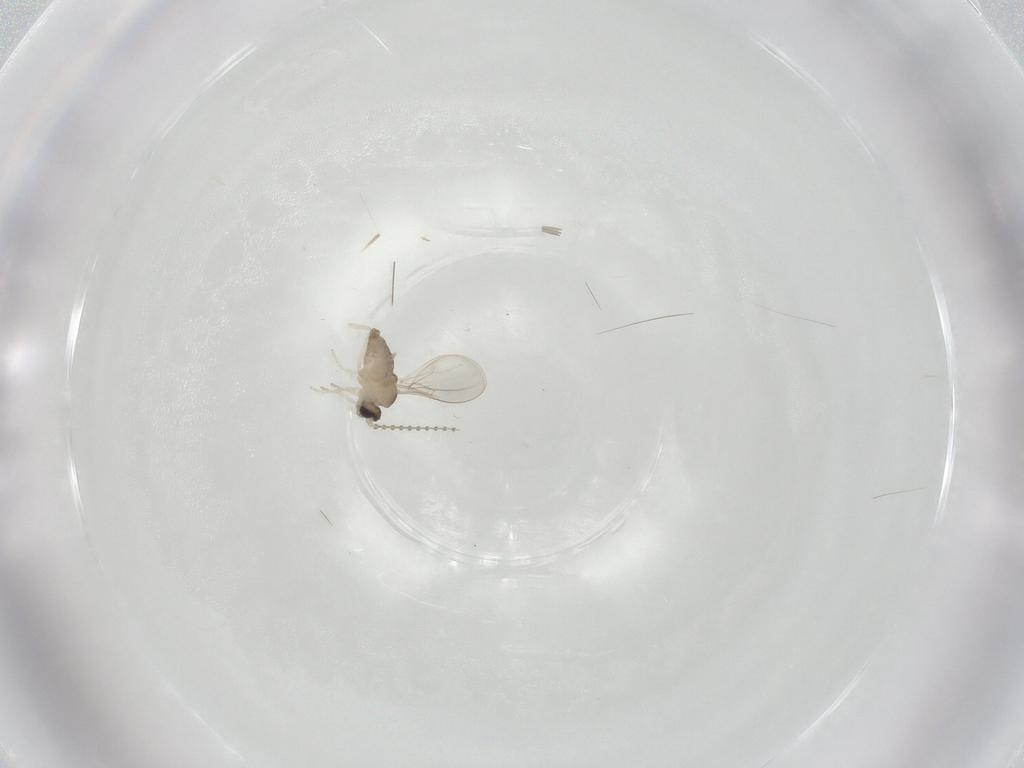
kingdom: Animalia
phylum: Arthropoda
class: Insecta
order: Diptera
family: Cecidomyiidae
